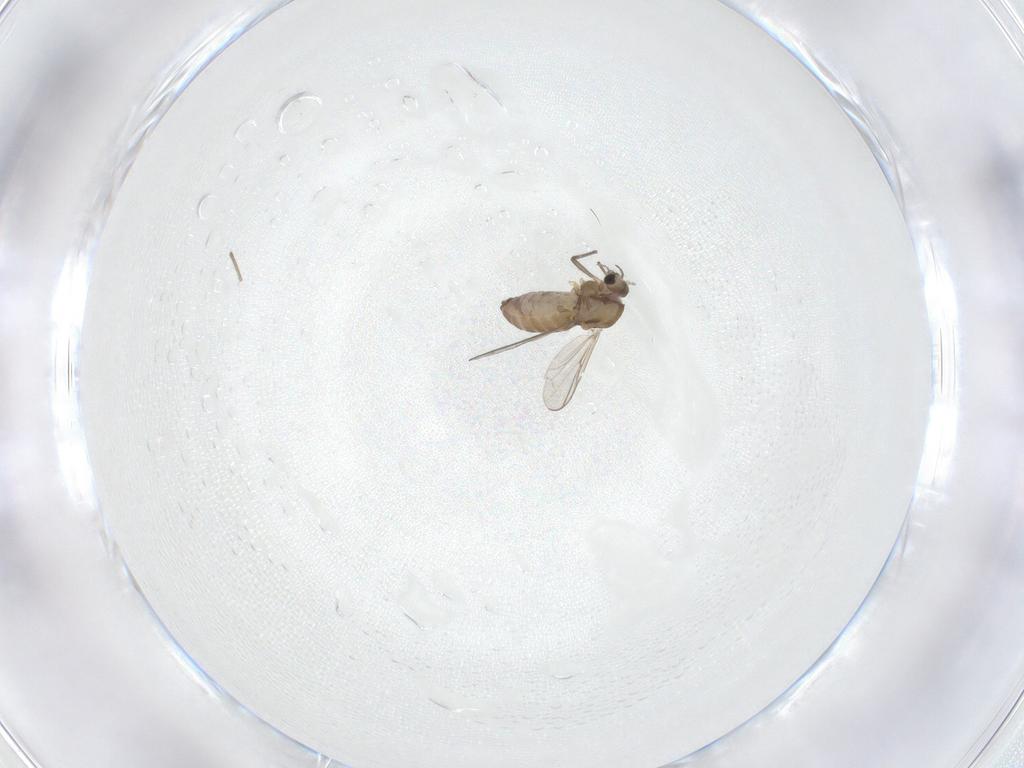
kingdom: Animalia
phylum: Arthropoda
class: Insecta
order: Diptera
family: Chironomidae
